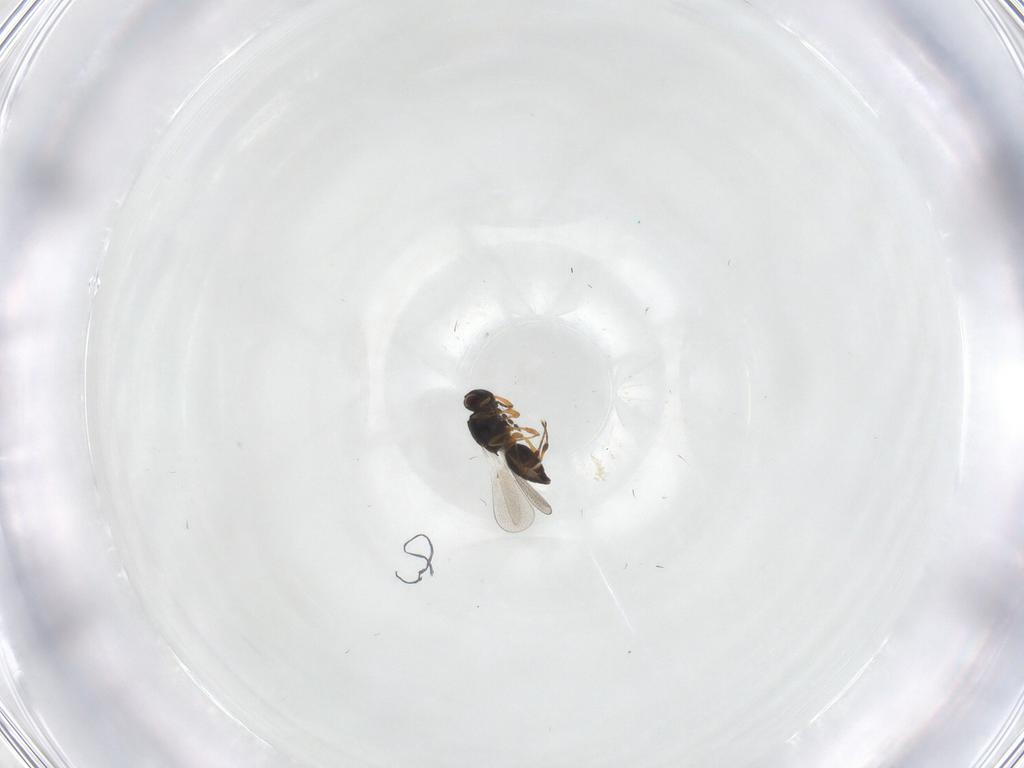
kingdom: Animalia
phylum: Arthropoda
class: Insecta
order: Hymenoptera
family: Platygastridae
